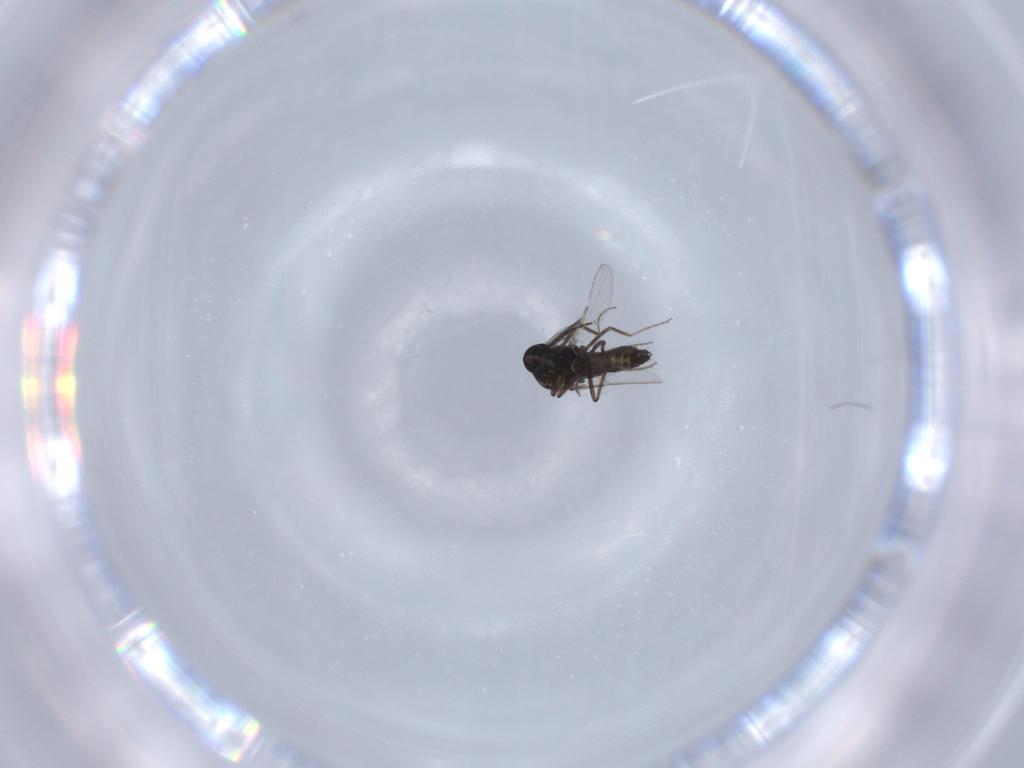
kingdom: Animalia
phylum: Arthropoda
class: Insecta
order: Diptera
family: Ceratopogonidae
